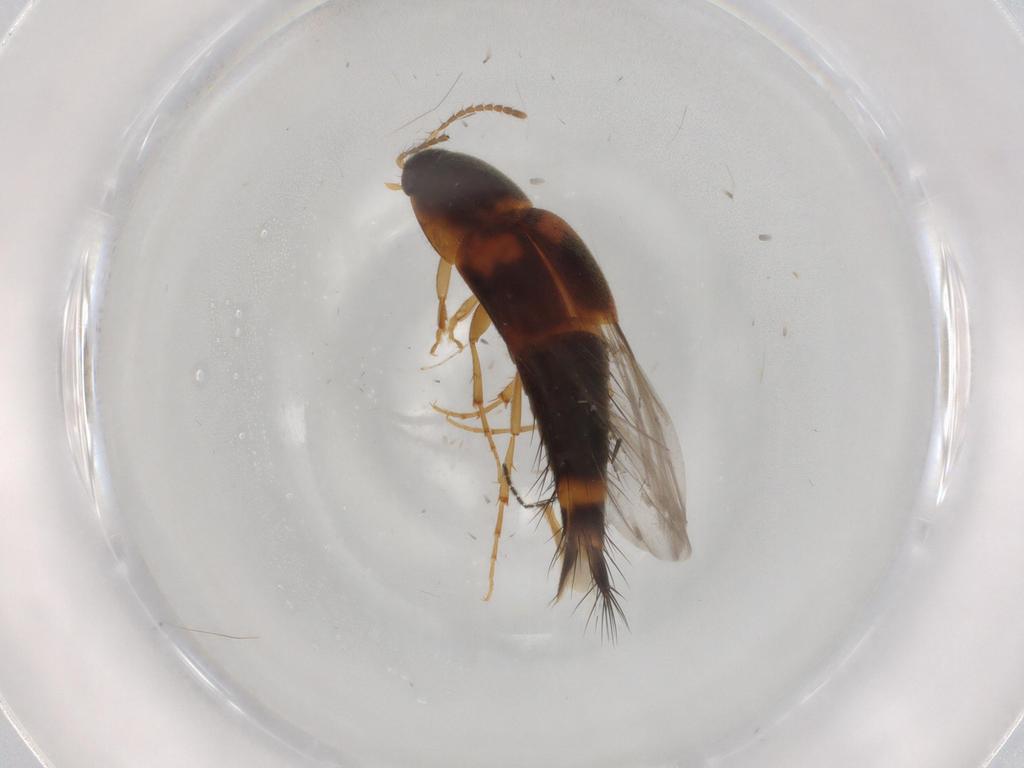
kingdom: Animalia
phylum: Arthropoda
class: Insecta
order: Coleoptera
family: Staphylinidae
